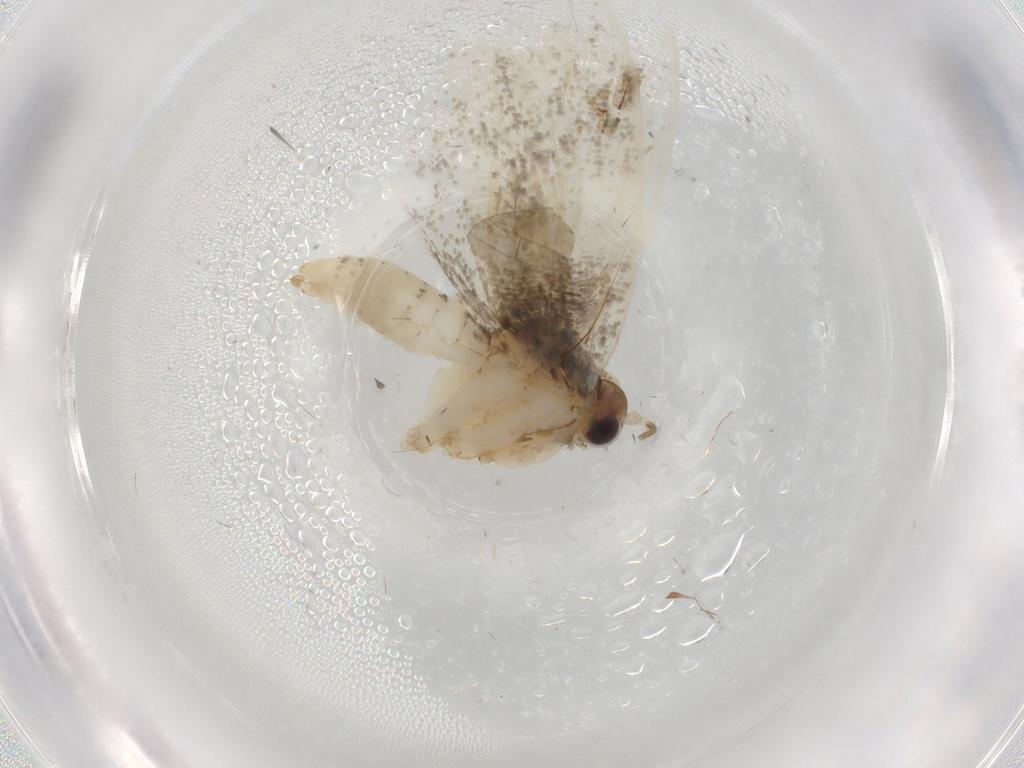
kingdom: Animalia
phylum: Arthropoda
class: Insecta
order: Lepidoptera
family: Psychidae
